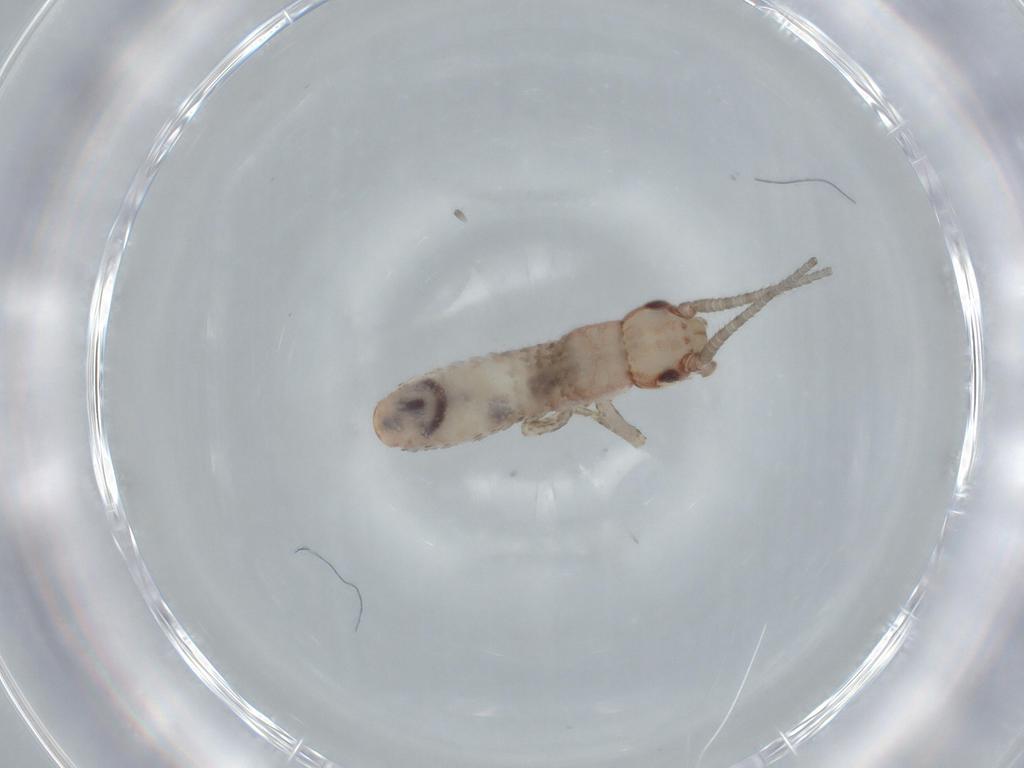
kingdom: Animalia
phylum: Arthropoda
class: Insecta
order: Orthoptera
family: Mogoplistidae
